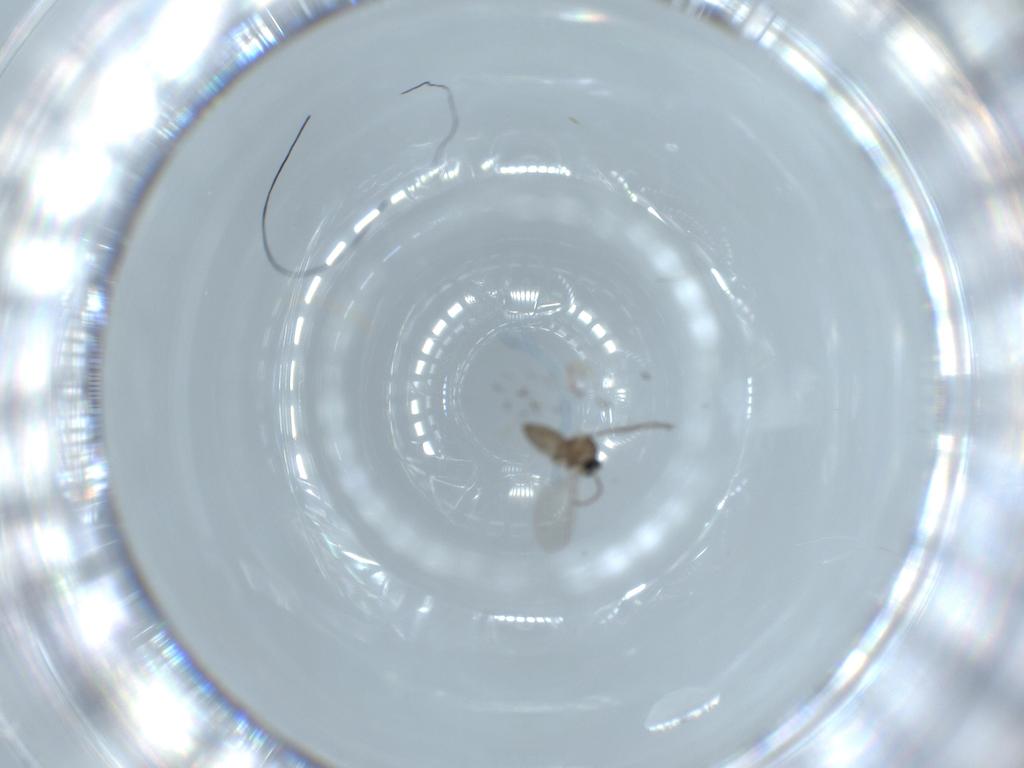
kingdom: Animalia
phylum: Arthropoda
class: Insecta
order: Diptera
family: Cecidomyiidae
